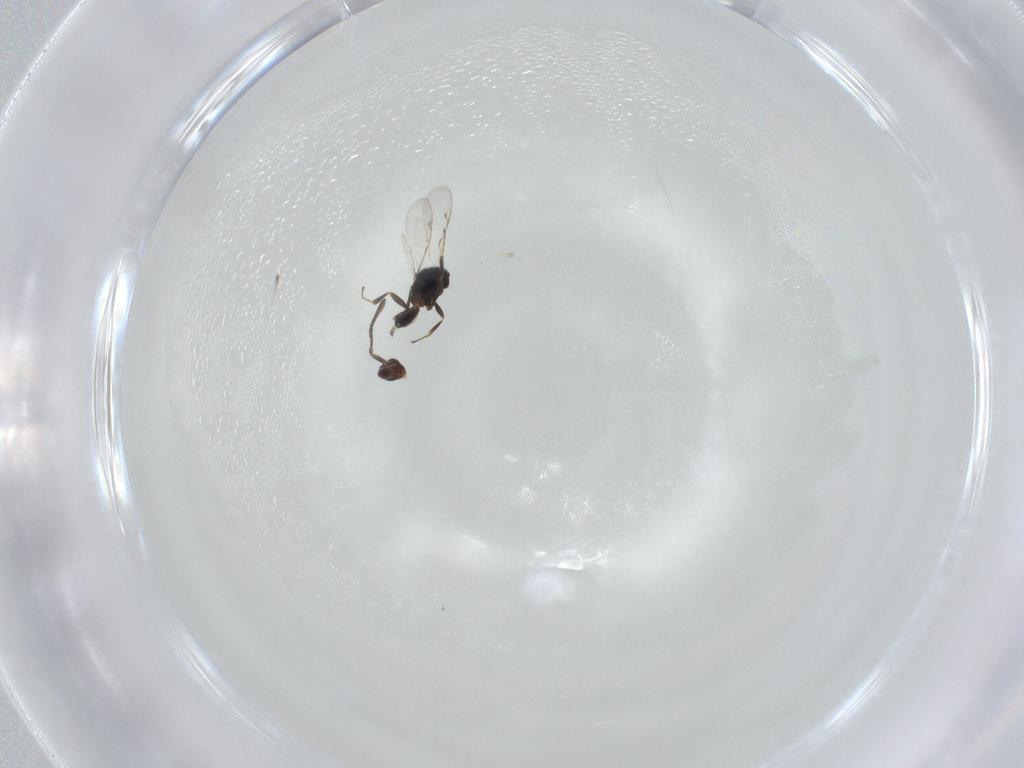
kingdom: Animalia
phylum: Arthropoda
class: Insecta
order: Hymenoptera
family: Mymaridae
